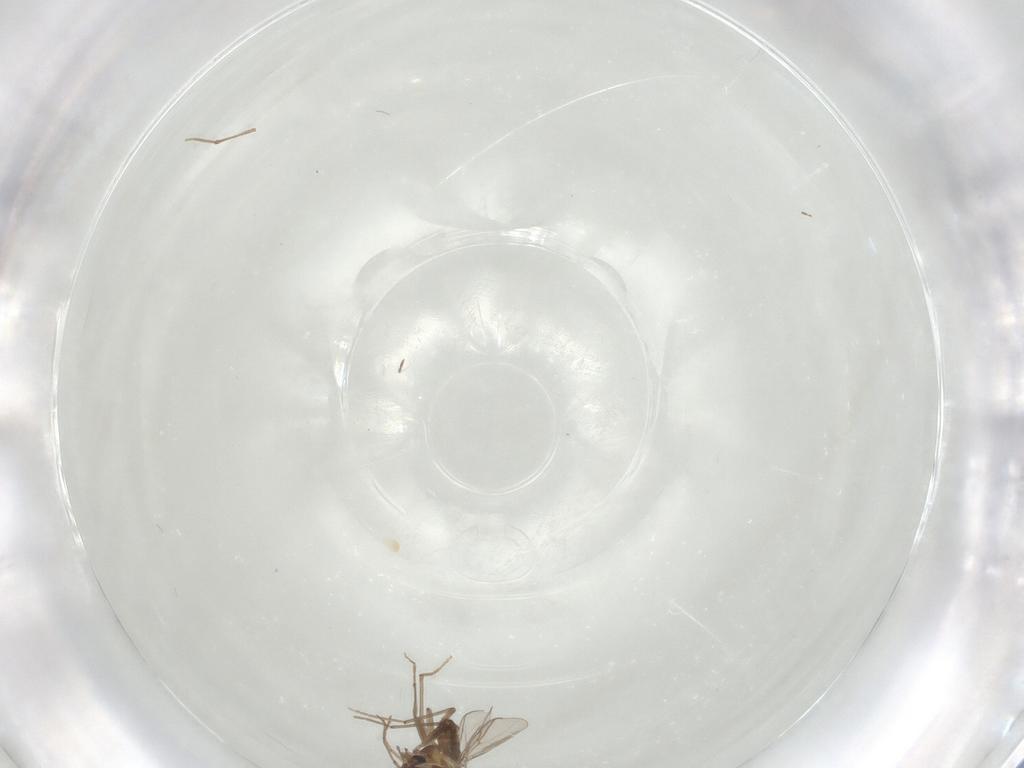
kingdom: Animalia
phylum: Arthropoda
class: Insecta
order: Diptera
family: Chironomidae
